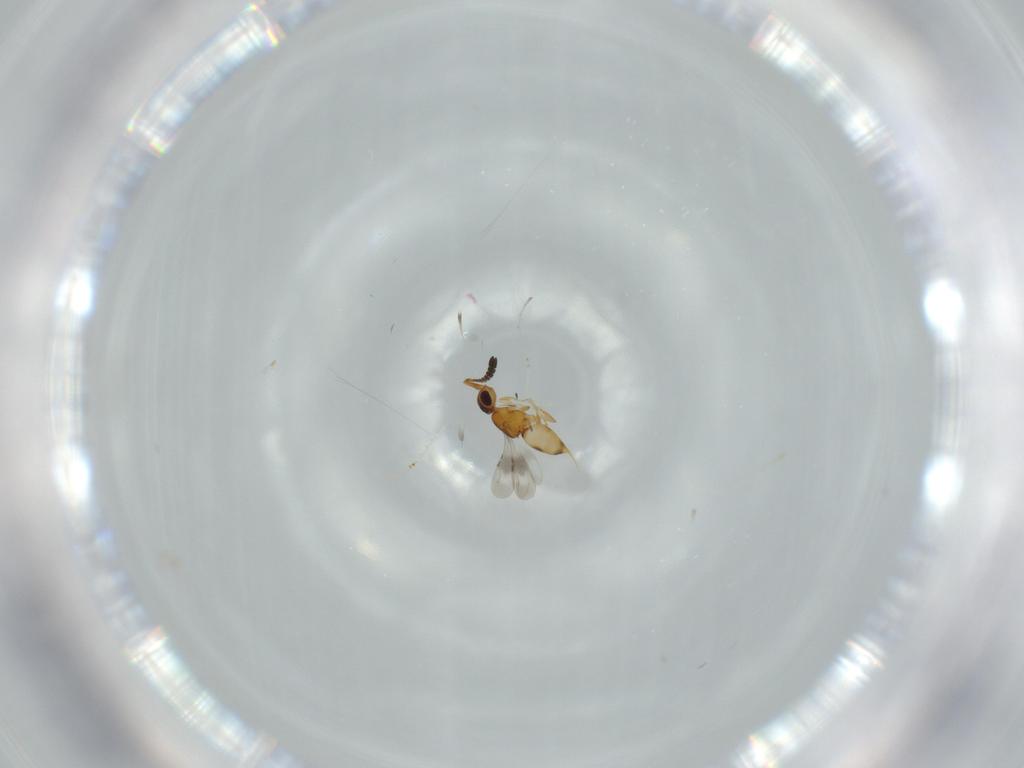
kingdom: Animalia
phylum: Arthropoda
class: Insecta
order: Hymenoptera
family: Ceraphronidae
